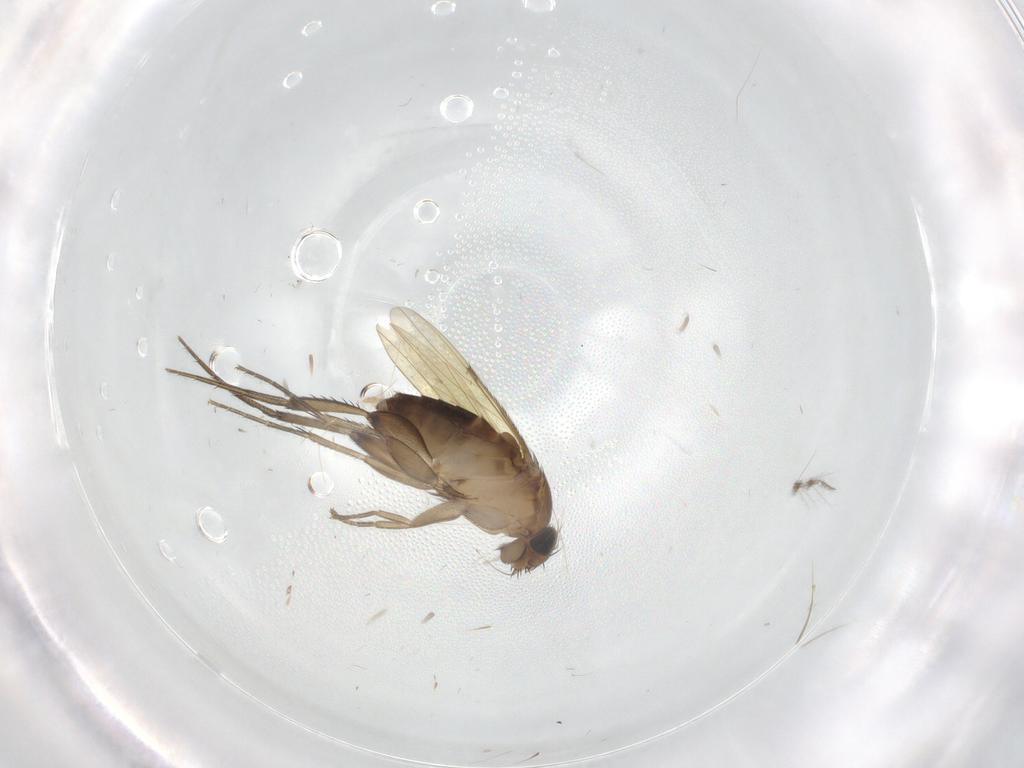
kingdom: Animalia
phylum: Arthropoda
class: Insecta
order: Diptera
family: Phoridae
